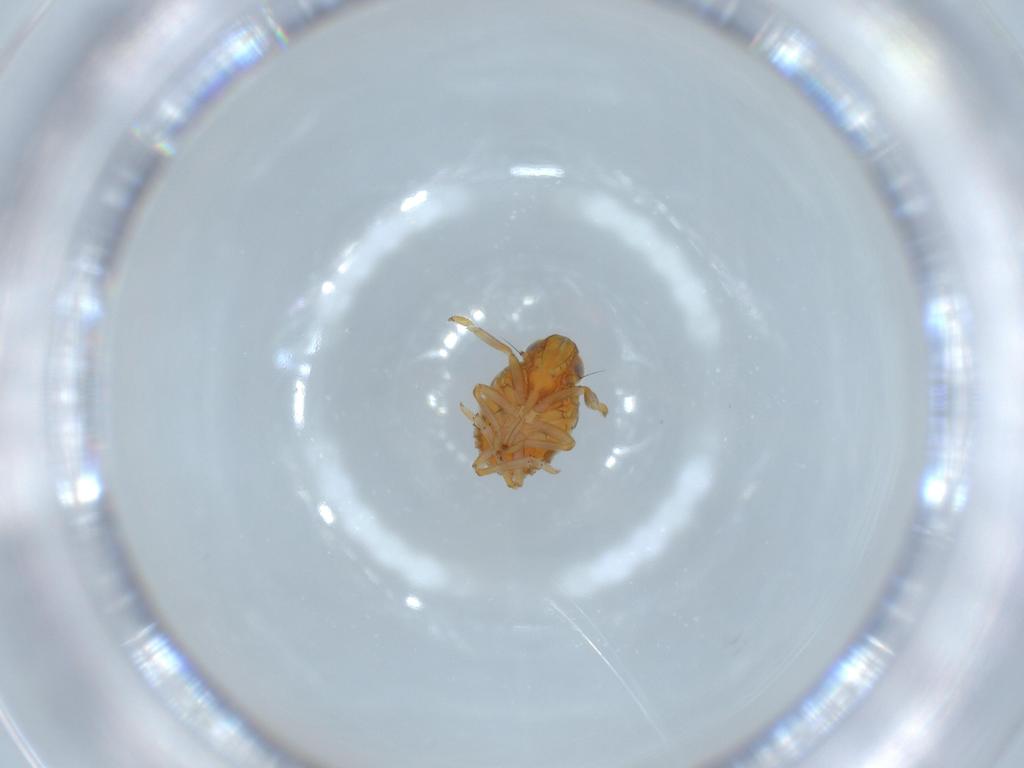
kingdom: Animalia
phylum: Arthropoda
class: Insecta
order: Hemiptera
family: Issidae
